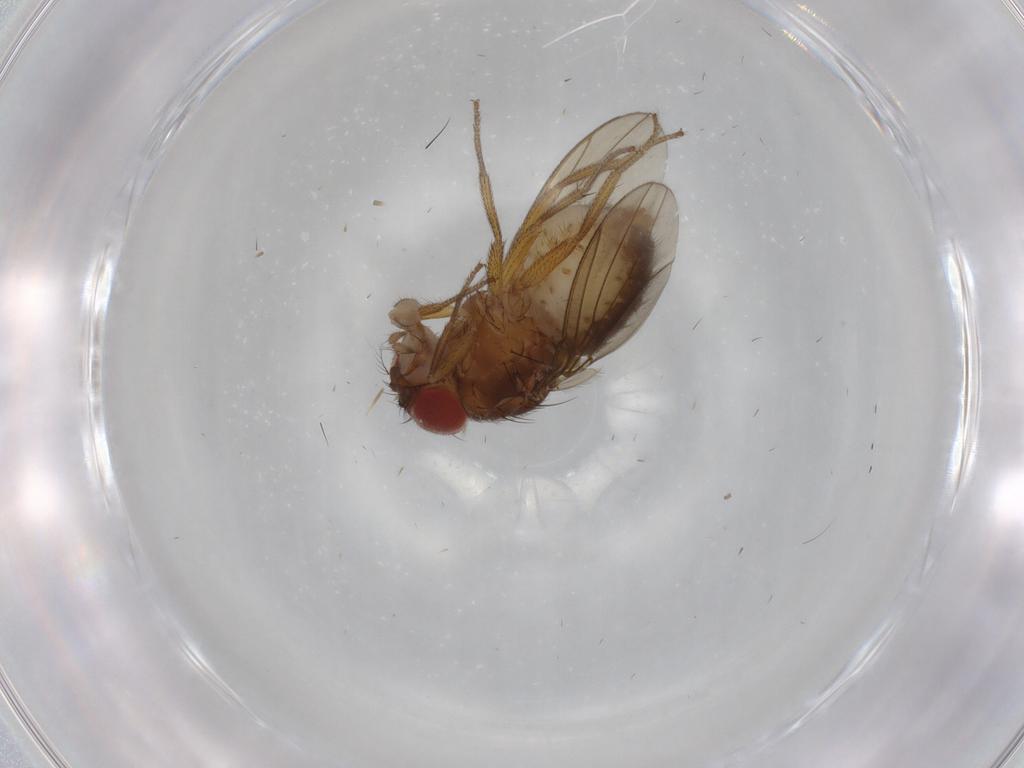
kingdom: Animalia
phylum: Arthropoda
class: Insecta
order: Diptera
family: Drosophilidae
